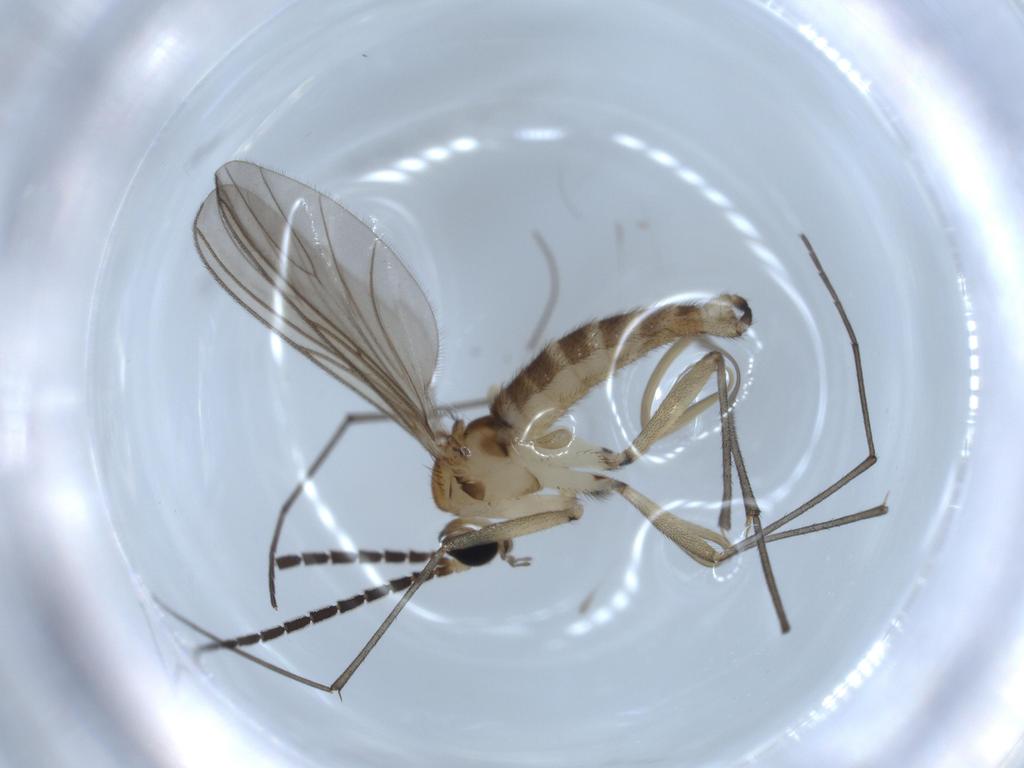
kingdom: Animalia
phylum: Arthropoda
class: Insecta
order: Diptera
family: Sciaridae
